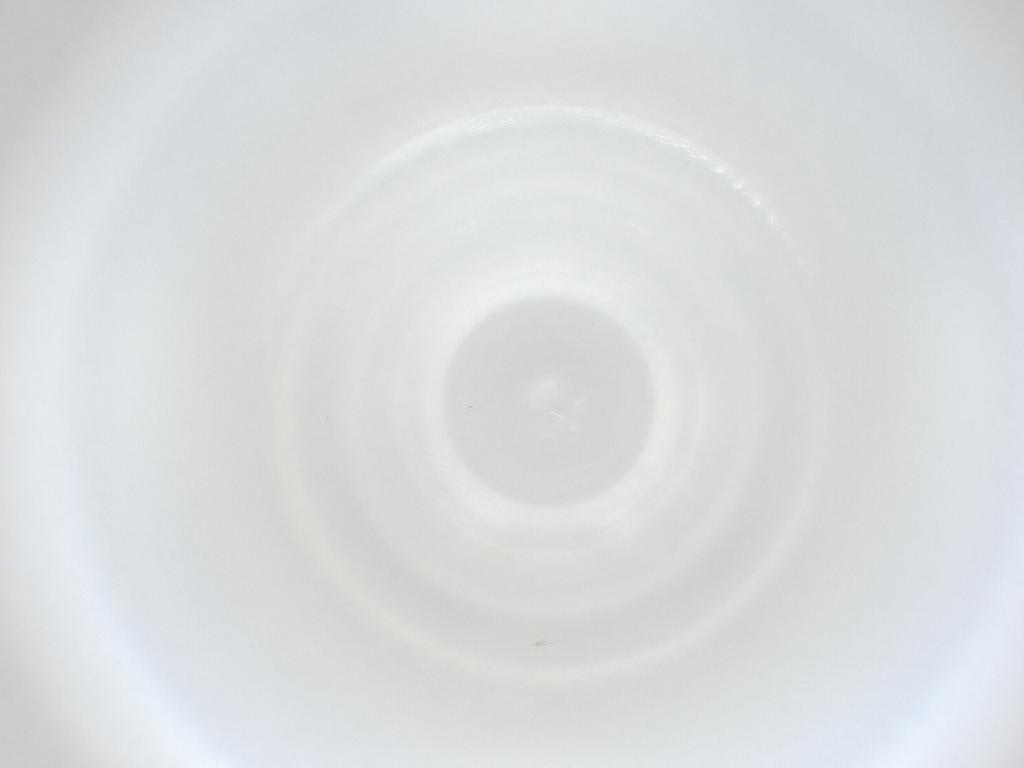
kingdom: Animalia
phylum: Arthropoda
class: Insecta
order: Diptera
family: Cecidomyiidae
